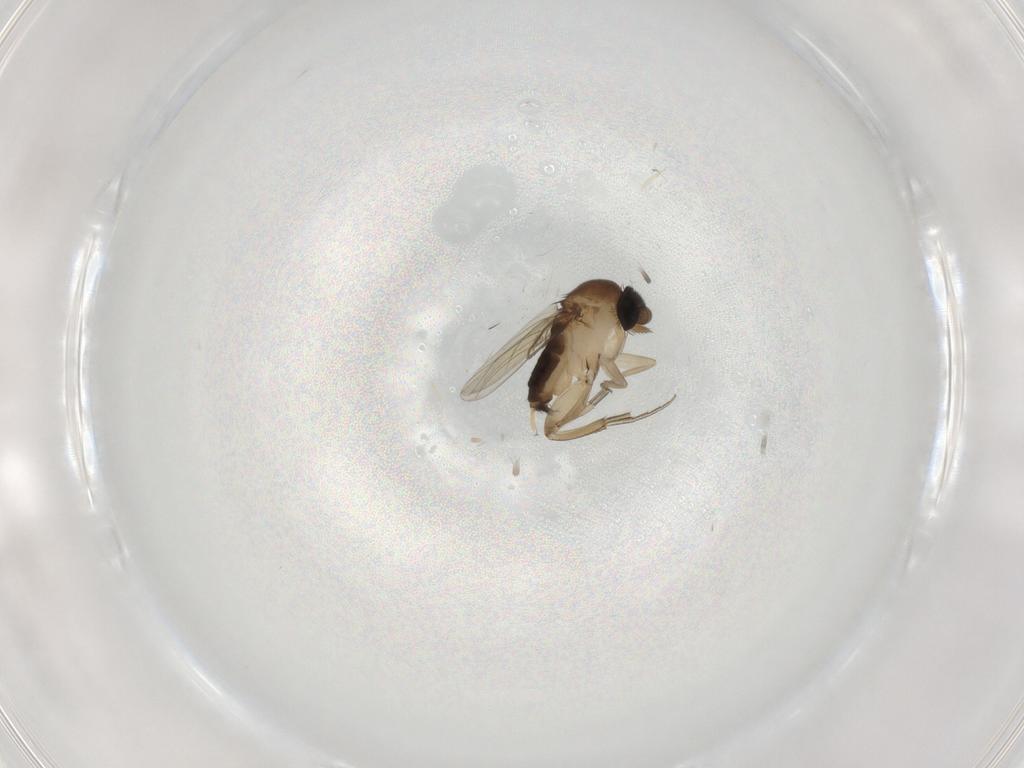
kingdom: Animalia
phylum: Arthropoda
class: Insecta
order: Diptera
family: Phoridae
